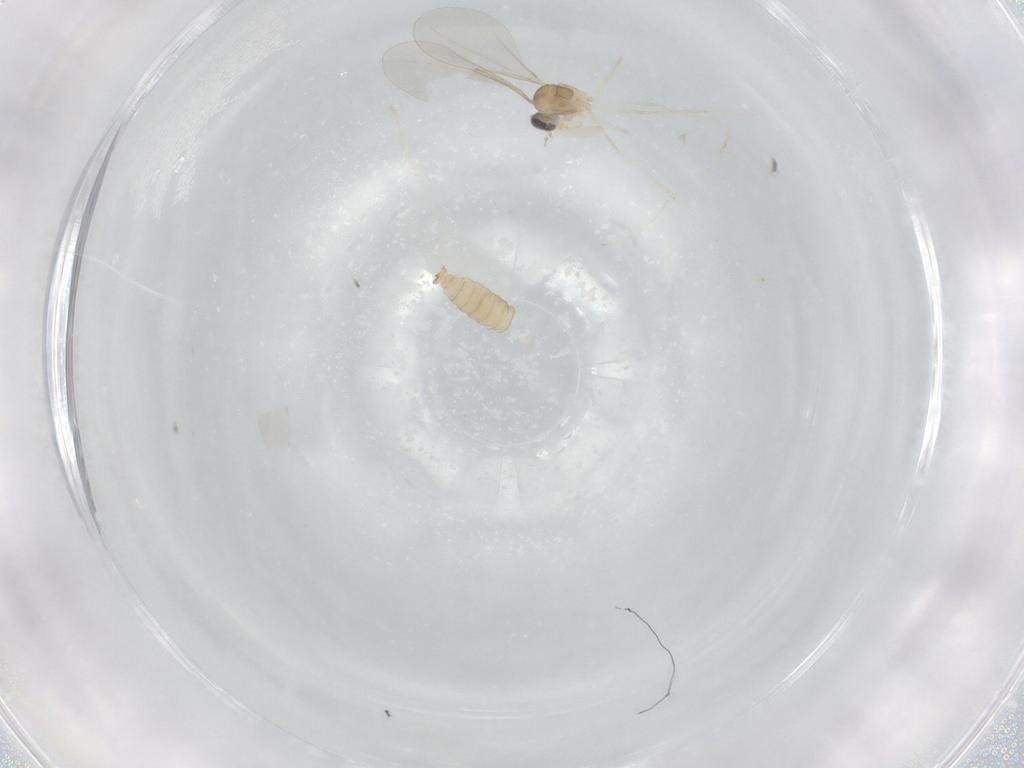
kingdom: Animalia
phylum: Arthropoda
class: Insecta
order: Diptera
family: Cecidomyiidae
